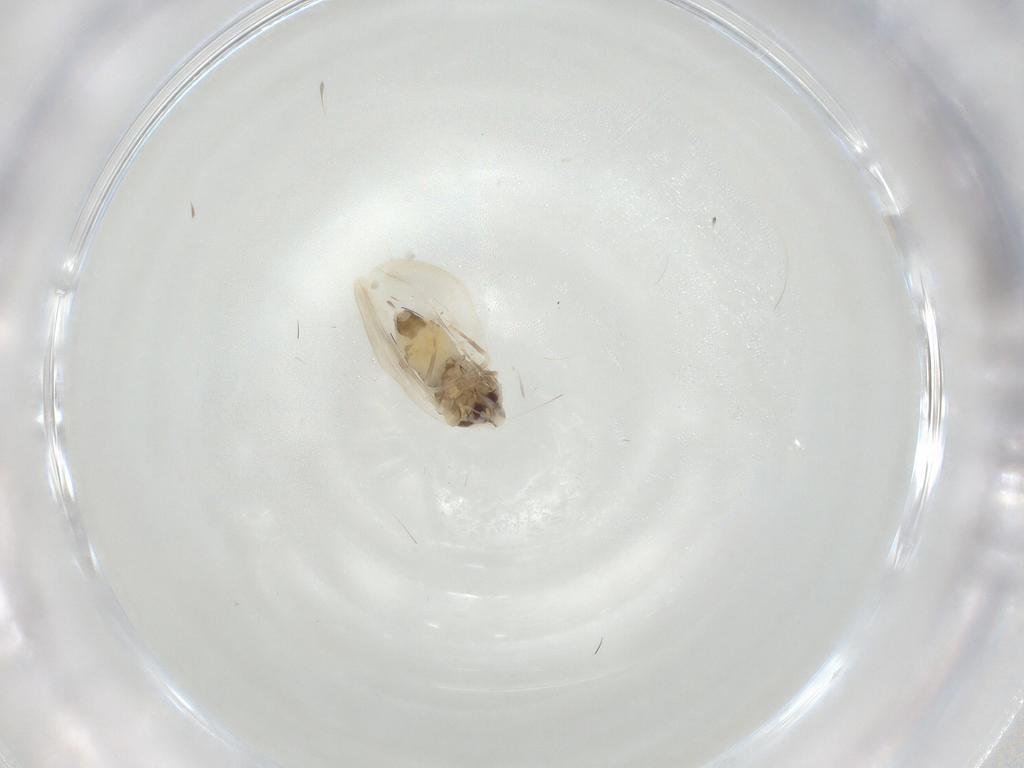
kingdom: Animalia
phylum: Arthropoda
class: Insecta
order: Hemiptera
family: Aleyrodidae
